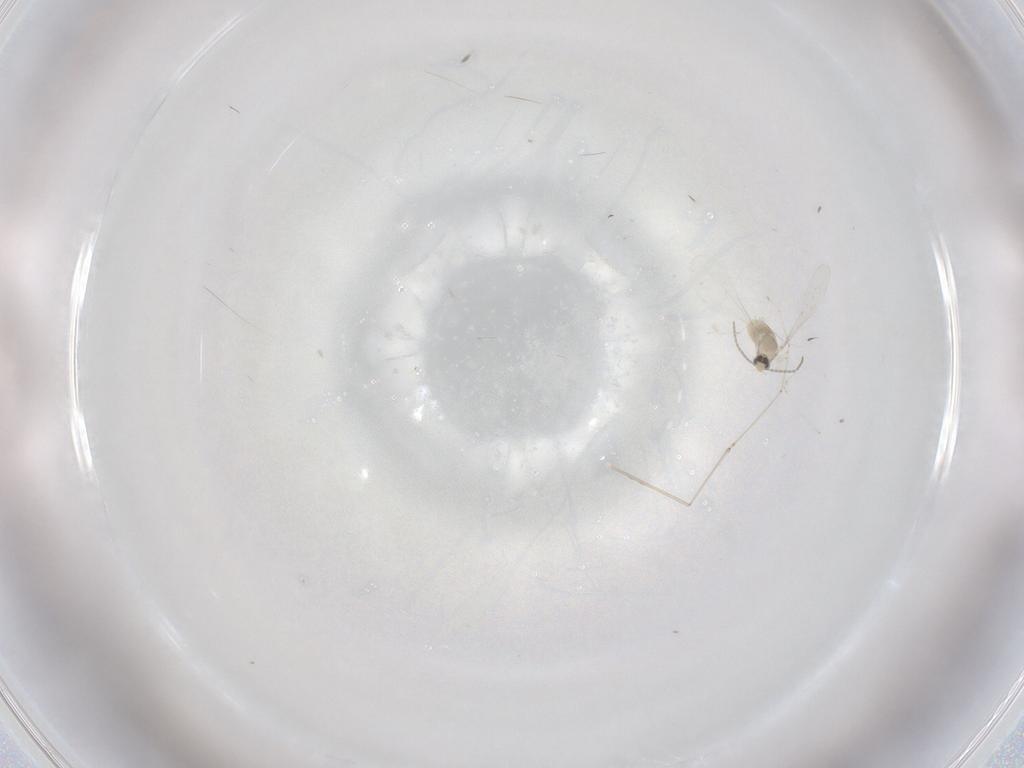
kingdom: Animalia
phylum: Arthropoda
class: Insecta
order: Diptera
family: Cecidomyiidae
